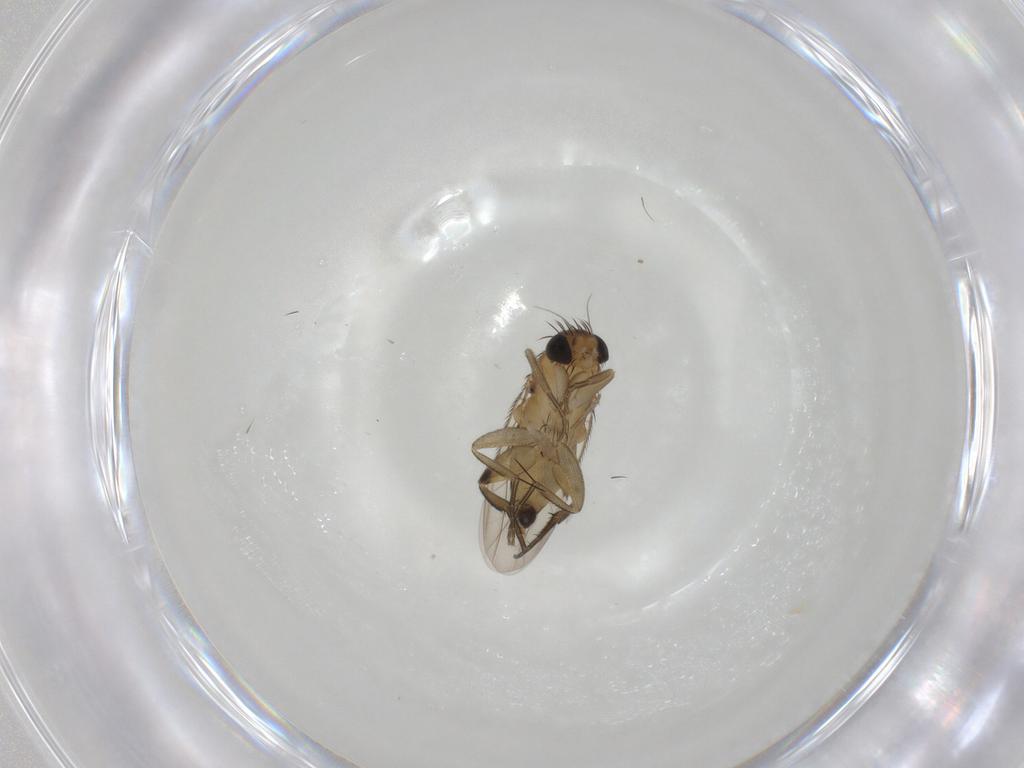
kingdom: Animalia
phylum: Arthropoda
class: Insecta
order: Diptera
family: Phoridae
